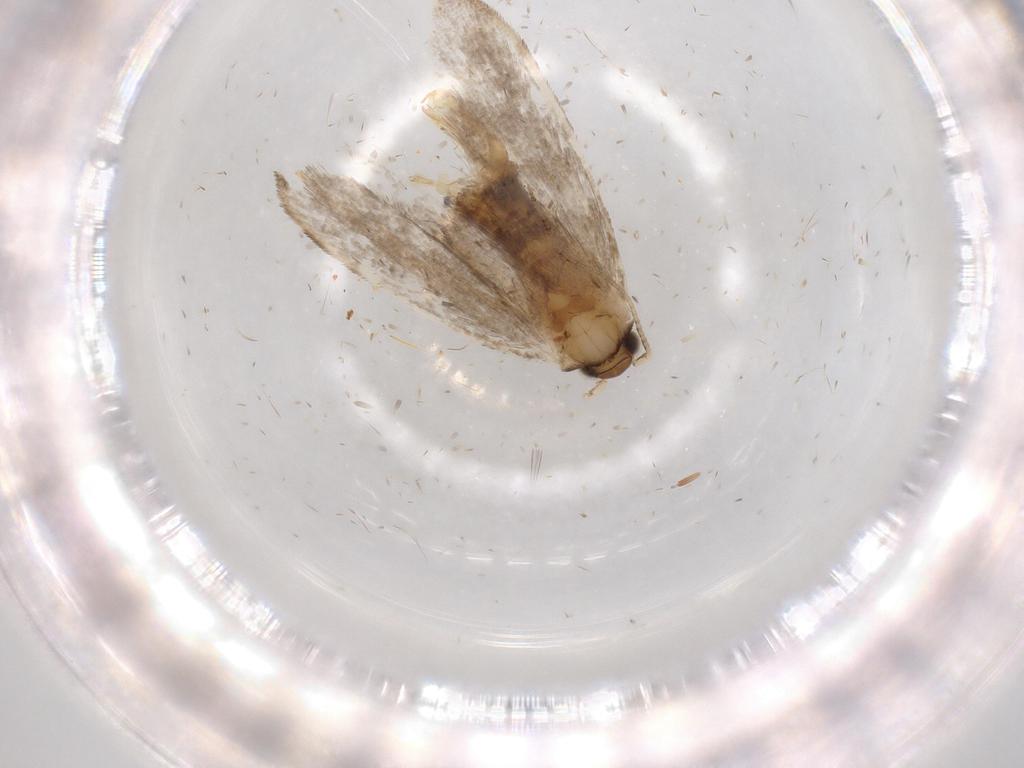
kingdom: Animalia
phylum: Arthropoda
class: Insecta
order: Lepidoptera
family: Tineidae
